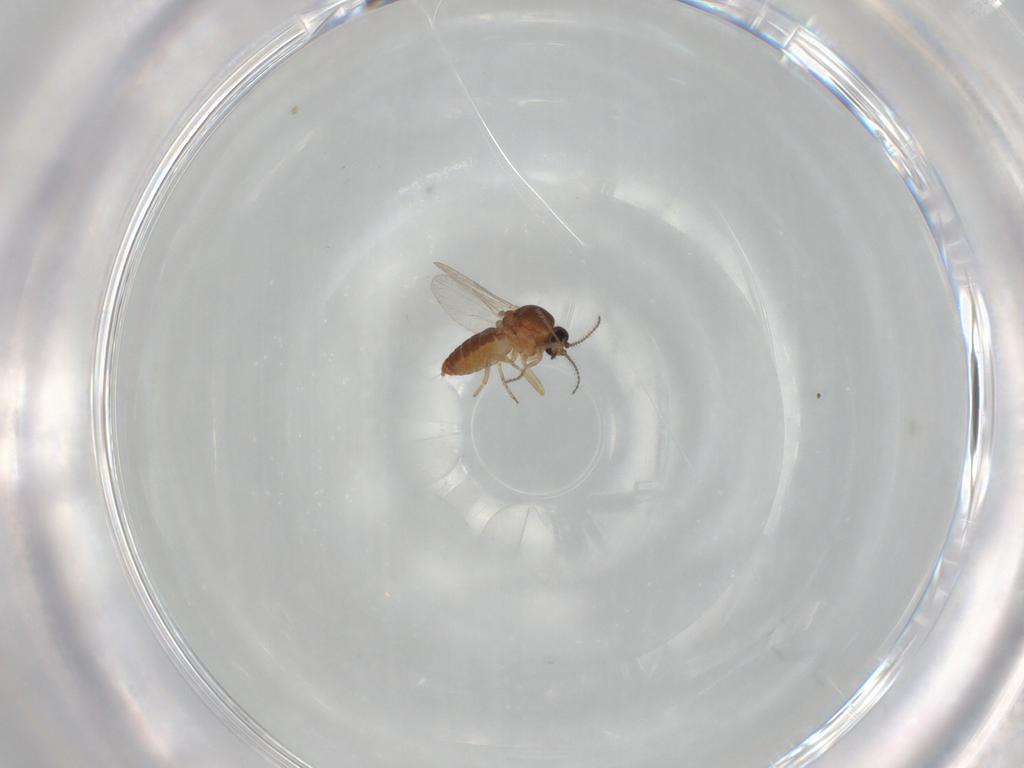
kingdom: Animalia
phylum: Arthropoda
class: Insecta
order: Diptera
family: Ceratopogonidae
